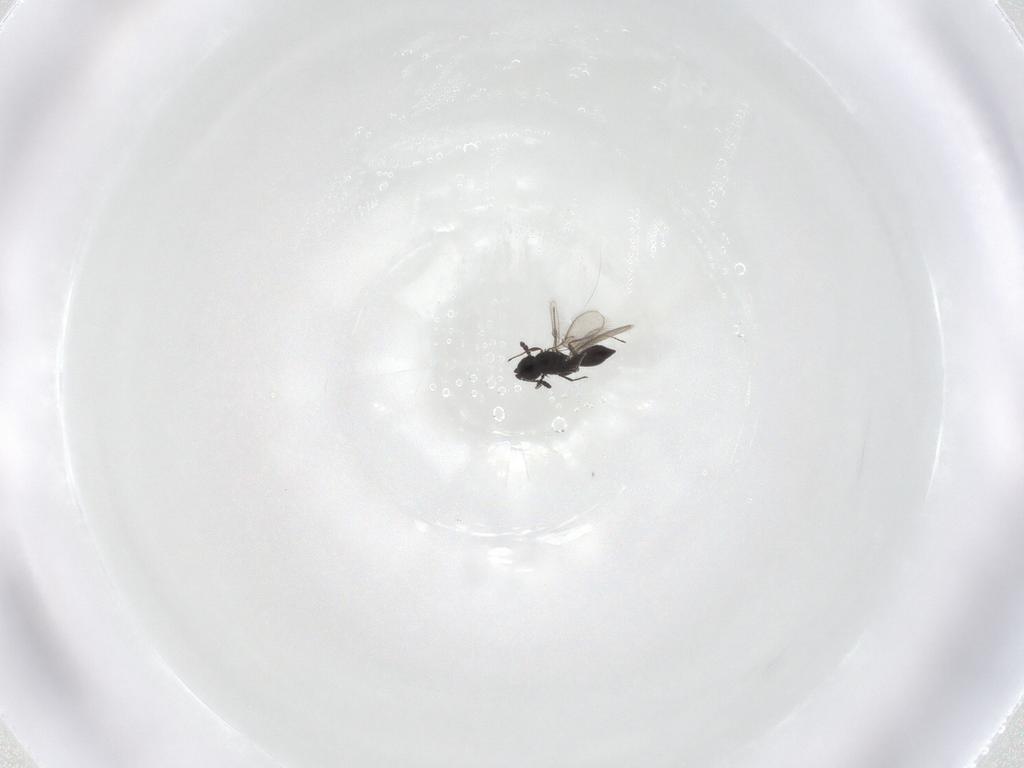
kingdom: Animalia
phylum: Arthropoda
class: Insecta
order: Hymenoptera
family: Scelionidae
